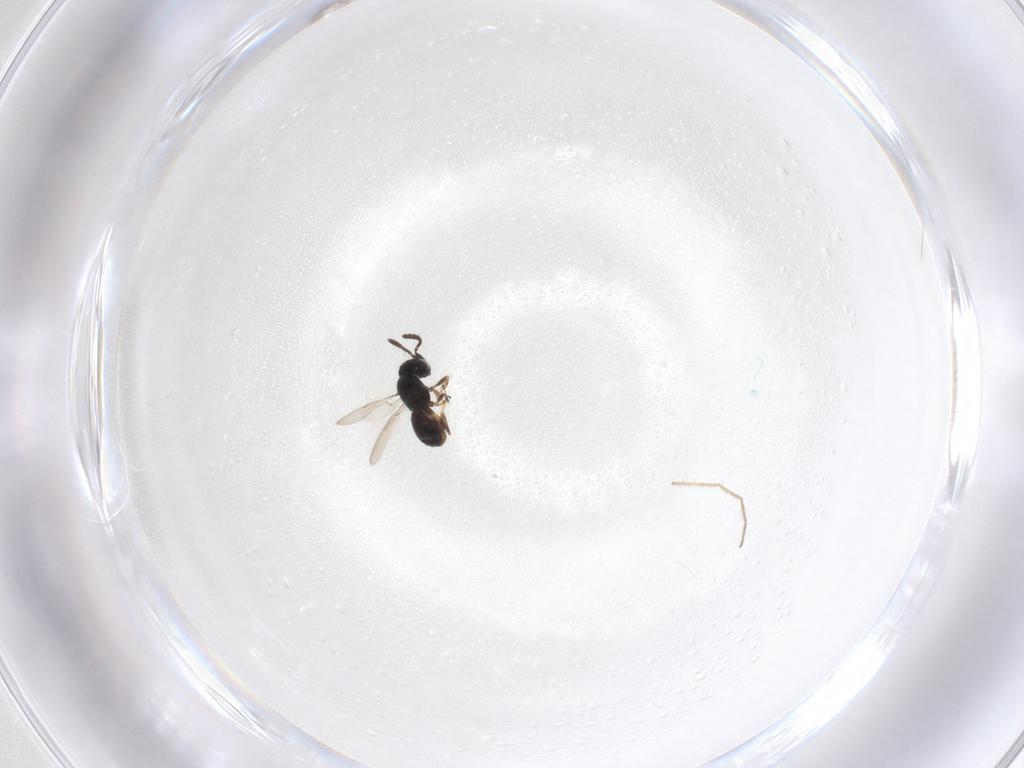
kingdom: Animalia
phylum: Arthropoda
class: Insecta
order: Hymenoptera
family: Scelionidae
